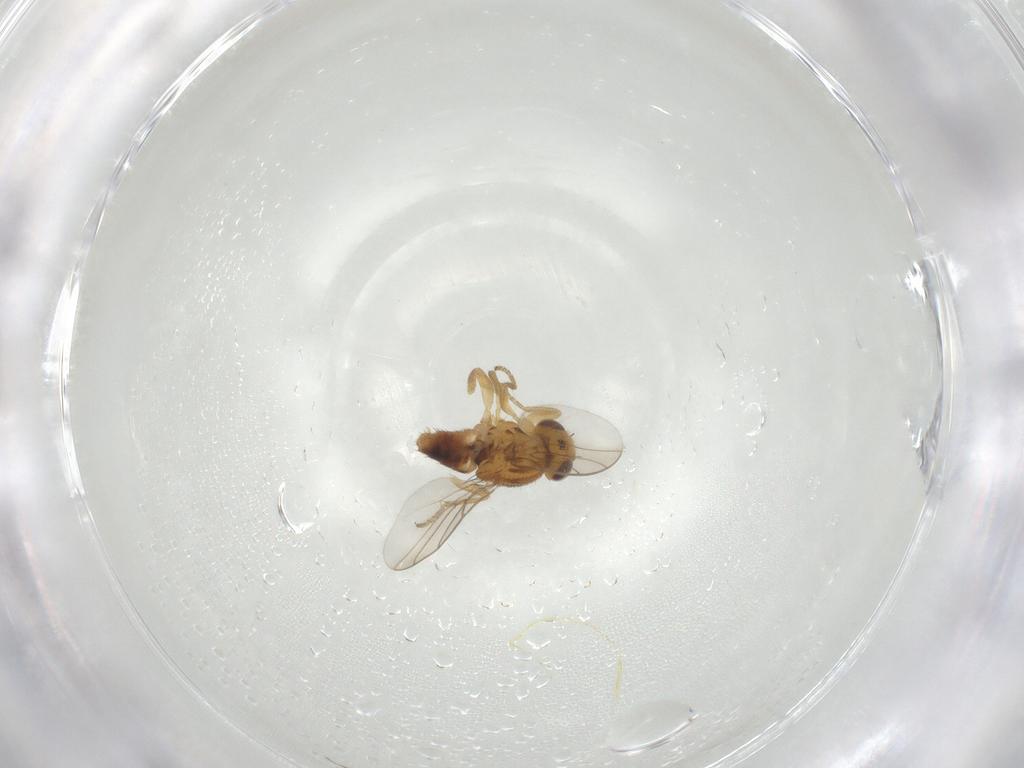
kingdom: Animalia
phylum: Arthropoda
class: Insecta
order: Diptera
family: Chloropidae
